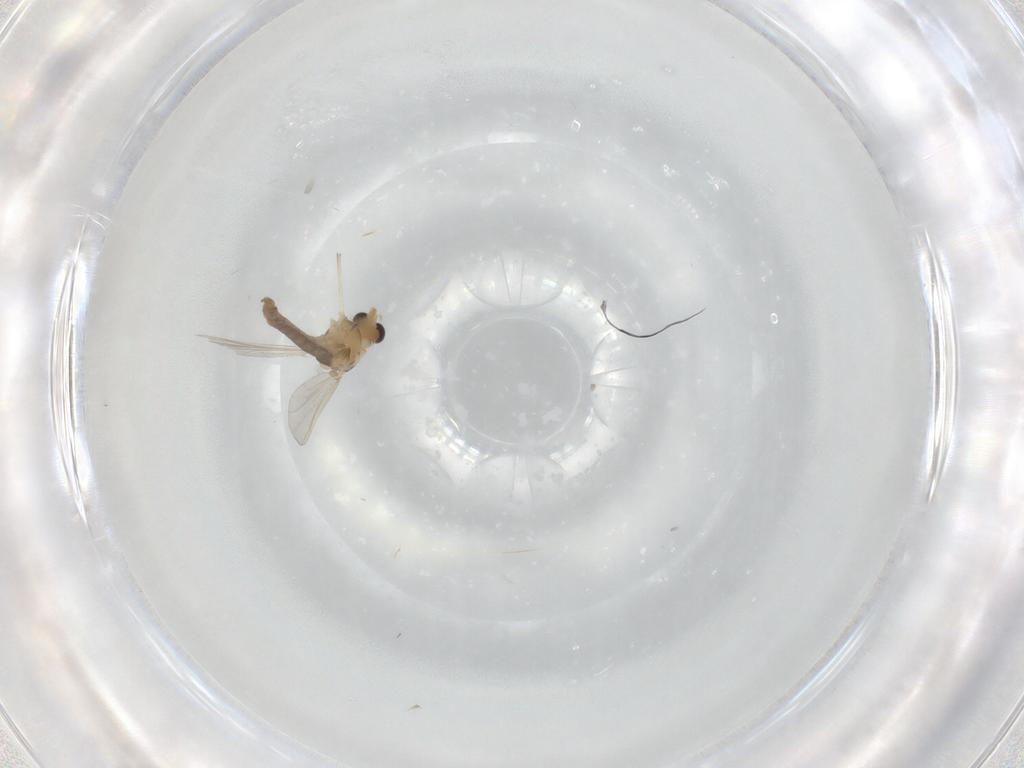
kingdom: Animalia
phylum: Arthropoda
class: Insecta
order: Diptera
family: Chironomidae
